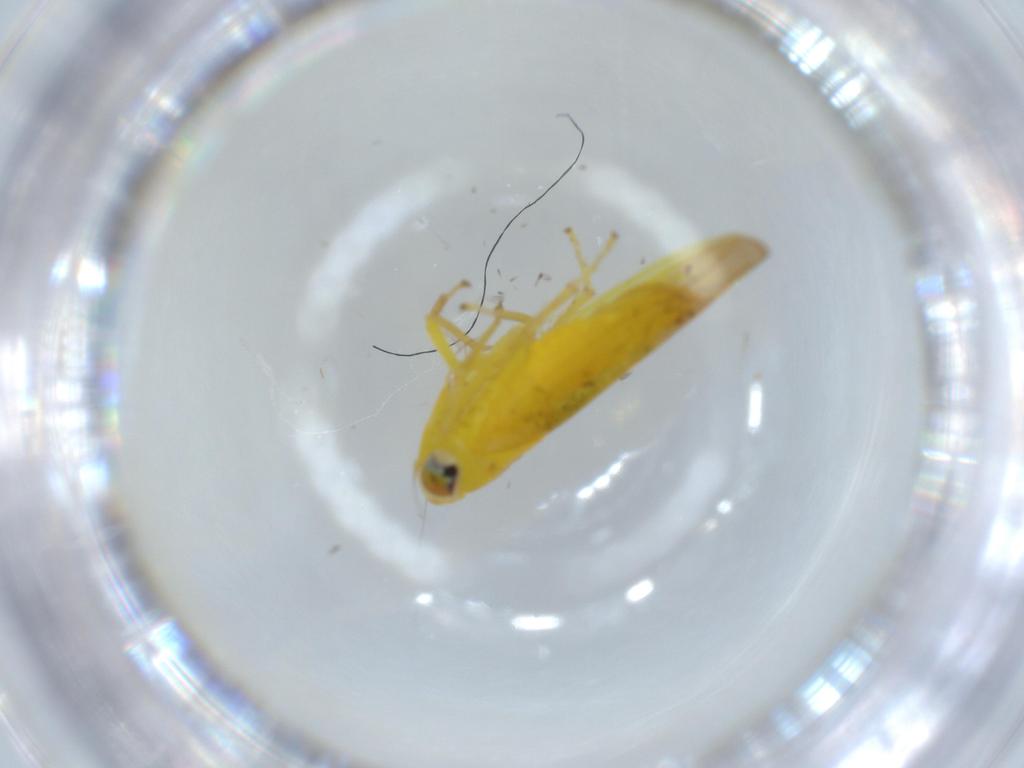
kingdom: Animalia
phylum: Arthropoda
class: Insecta
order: Hemiptera
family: Cicadellidae
